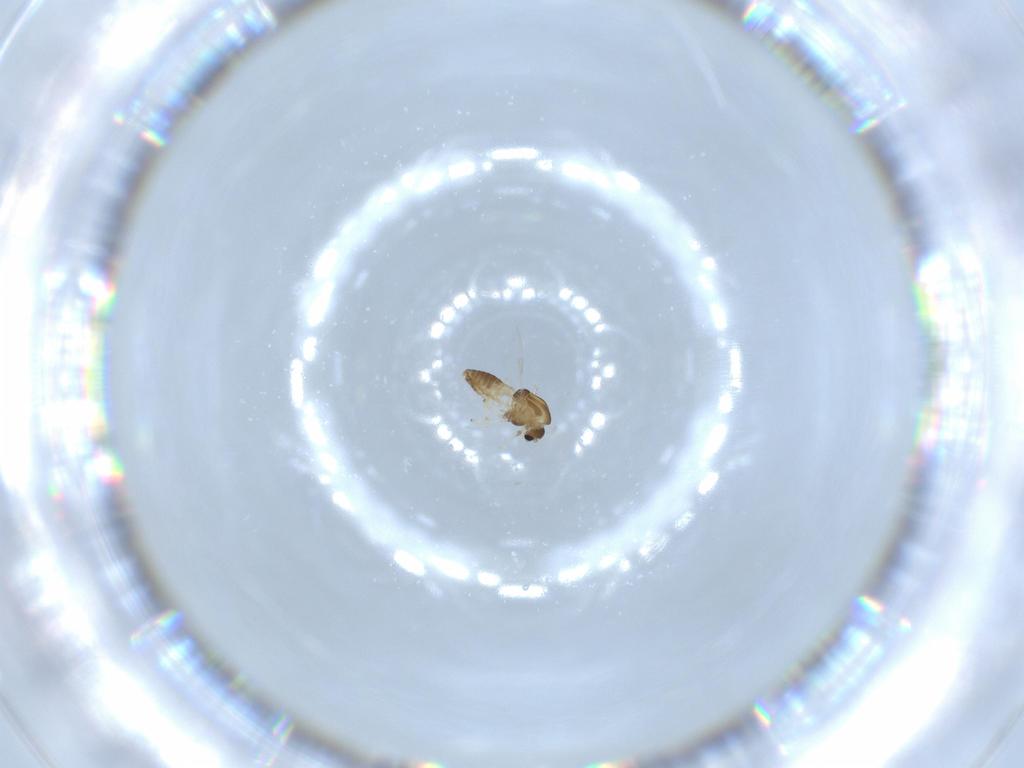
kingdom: Animalia
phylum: Arthropoda
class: Insecta
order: Diptera
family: Chironomidae
